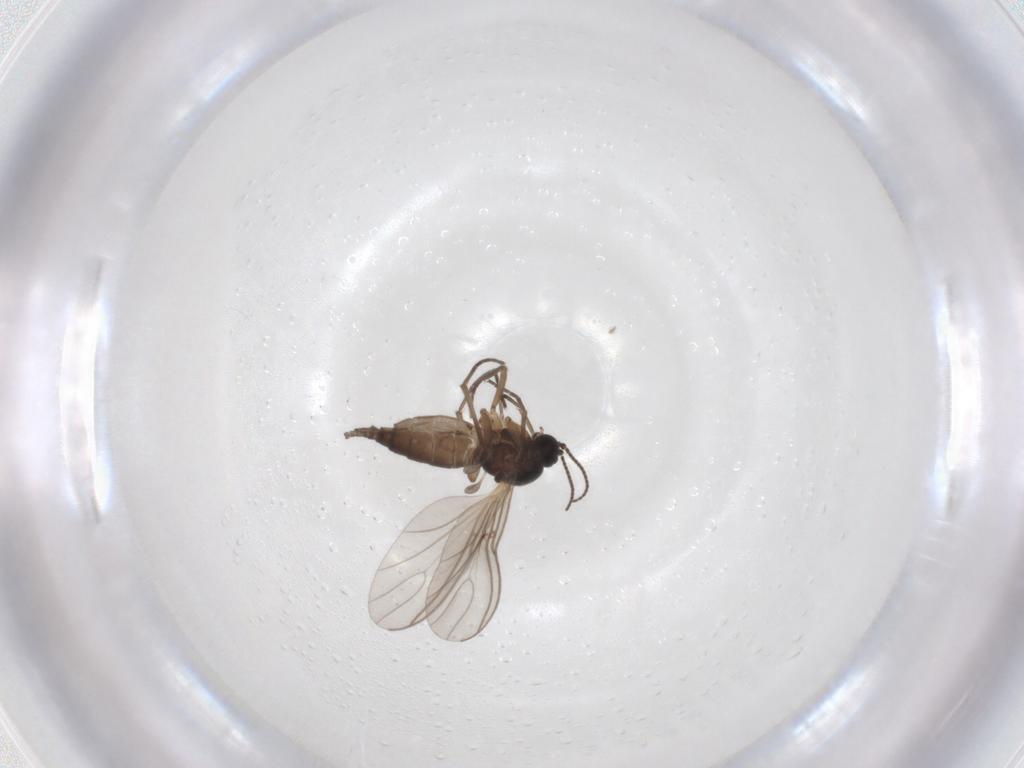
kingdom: Animalia
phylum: Arthropoda
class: Insecta
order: Diptera
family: Sciaridae
